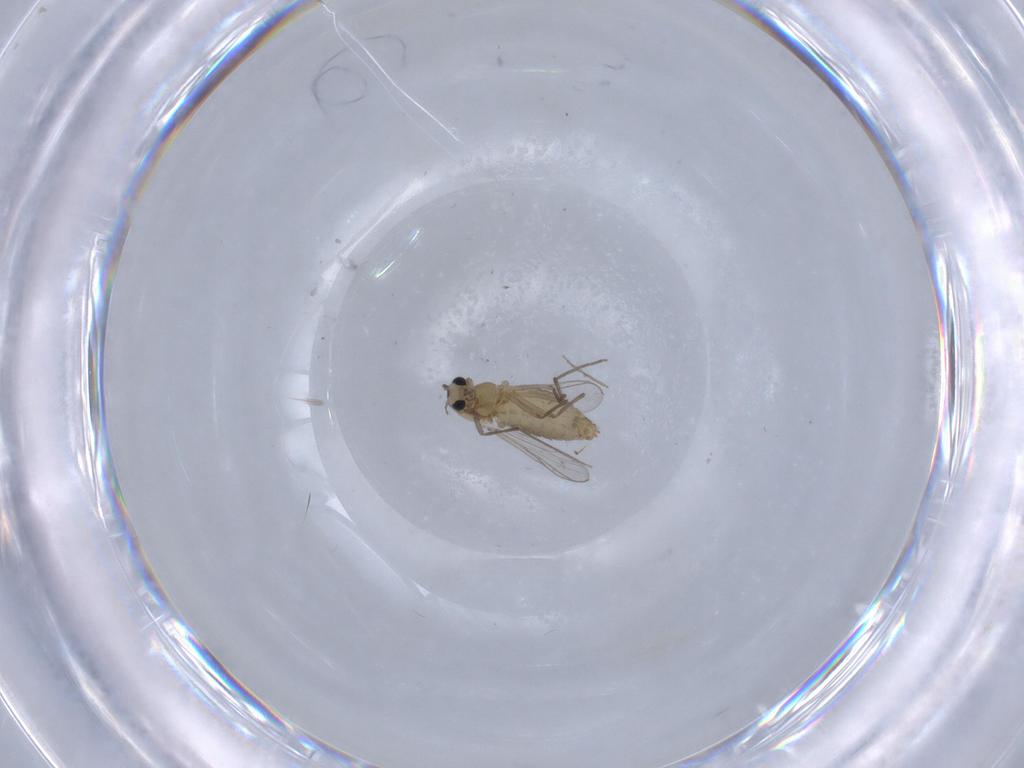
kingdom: Animalia
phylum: Arthropoda
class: Insecta
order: Diptera
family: Chironomidae
